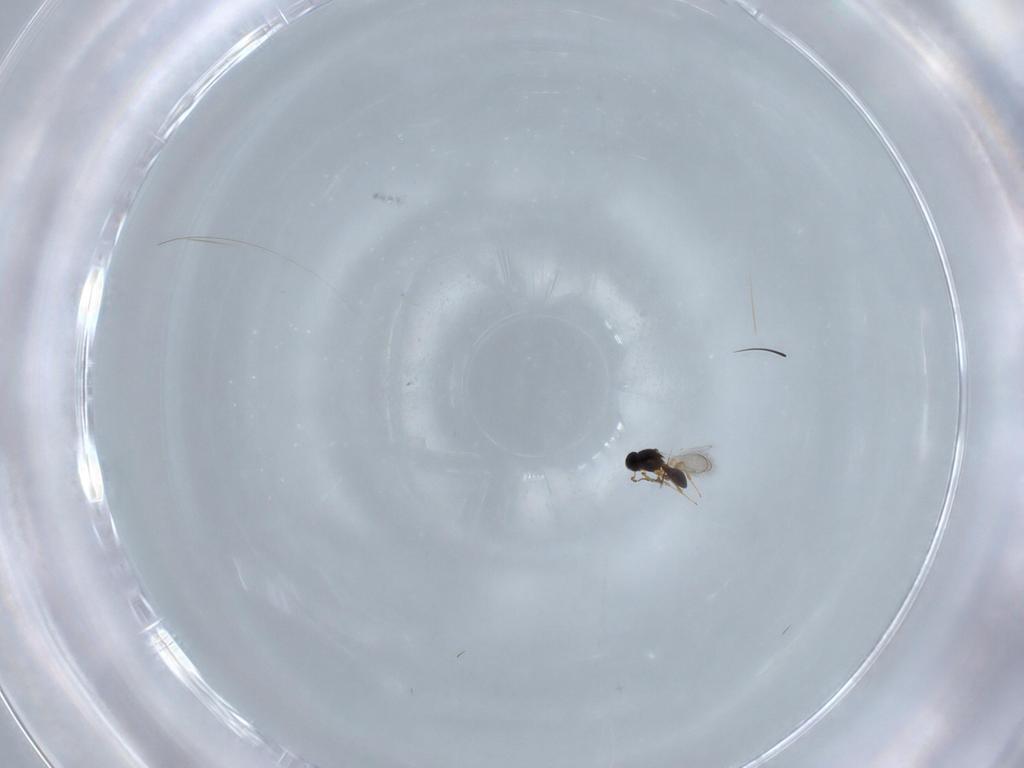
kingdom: Animalia
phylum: Arthropoda
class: Insecta
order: Hymenoptera
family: Platygastridae
